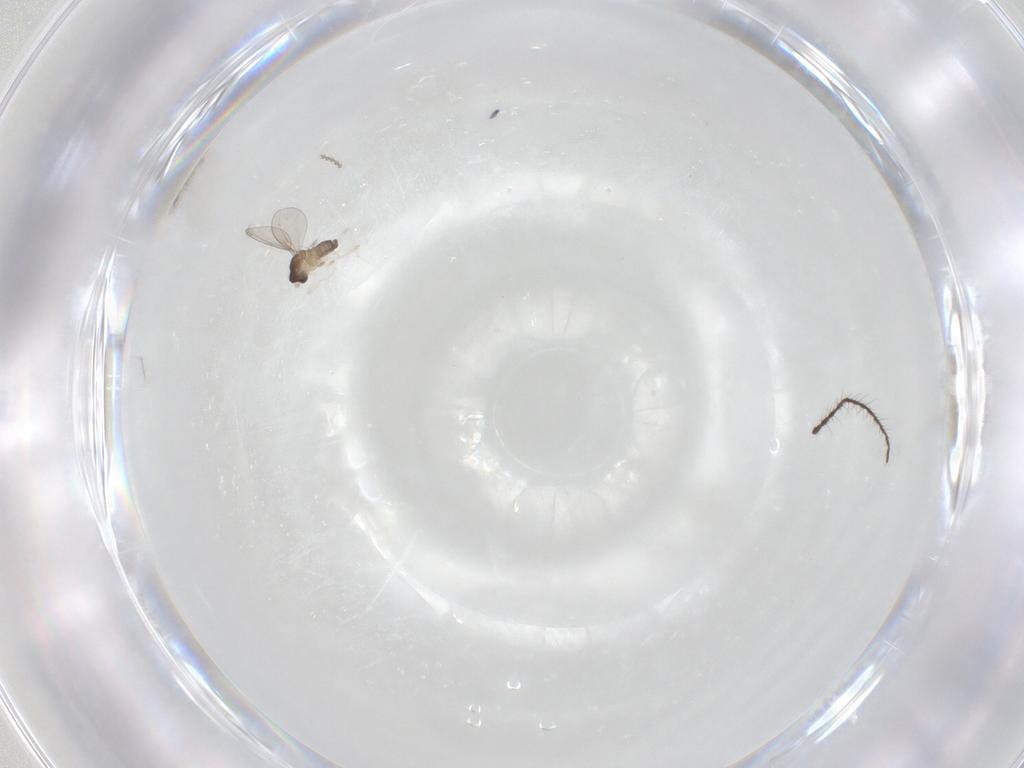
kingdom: Animalia
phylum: Arthropoda
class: Insecta
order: Diptera
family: Cecidomyiidae
